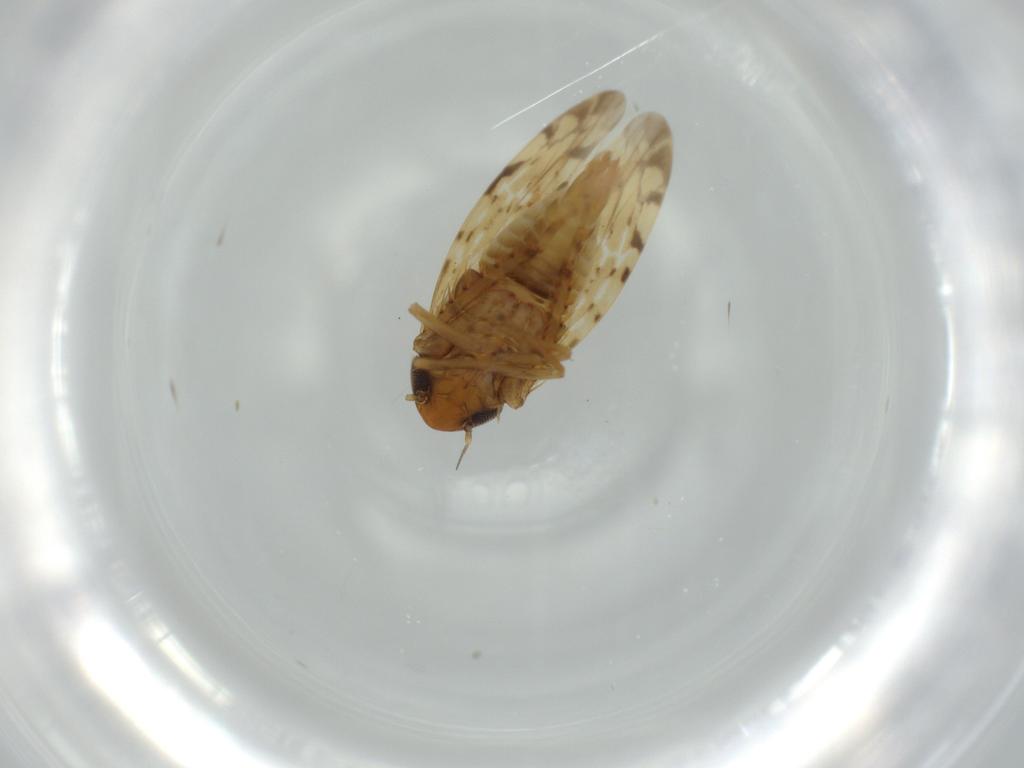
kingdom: Animalia
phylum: Arthropoda
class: Insecta
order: Hemiptera
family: Cicadellidae
